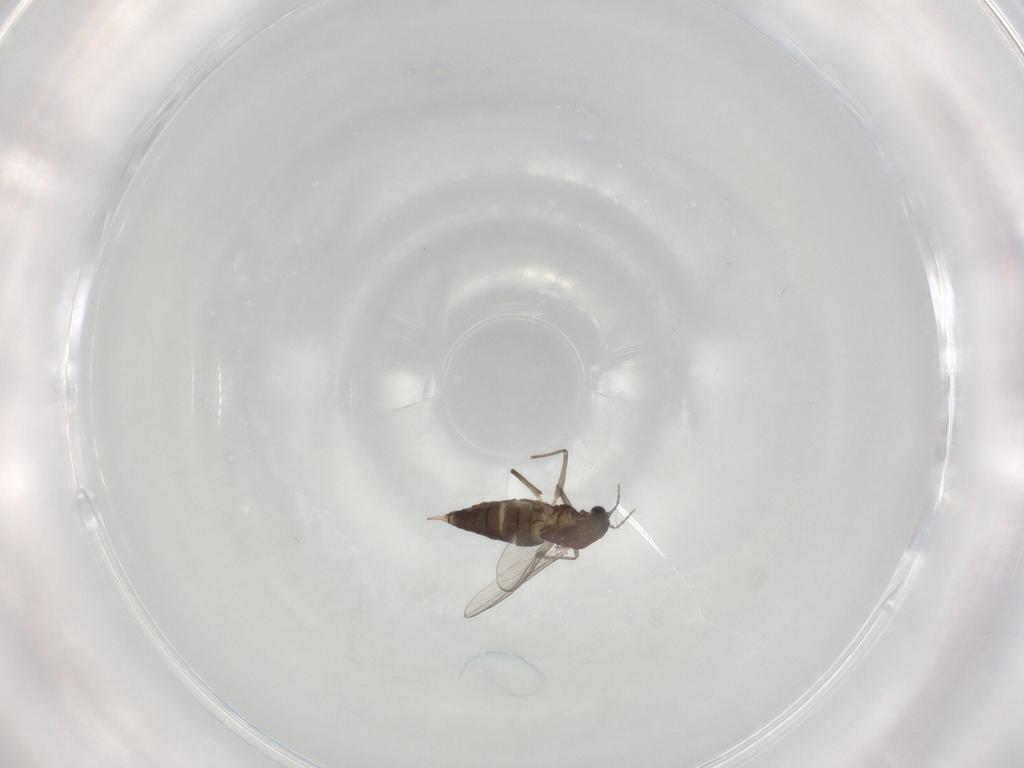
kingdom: Animalia
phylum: Arthropoda
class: Insecta
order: Diptera
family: Chironomidae
